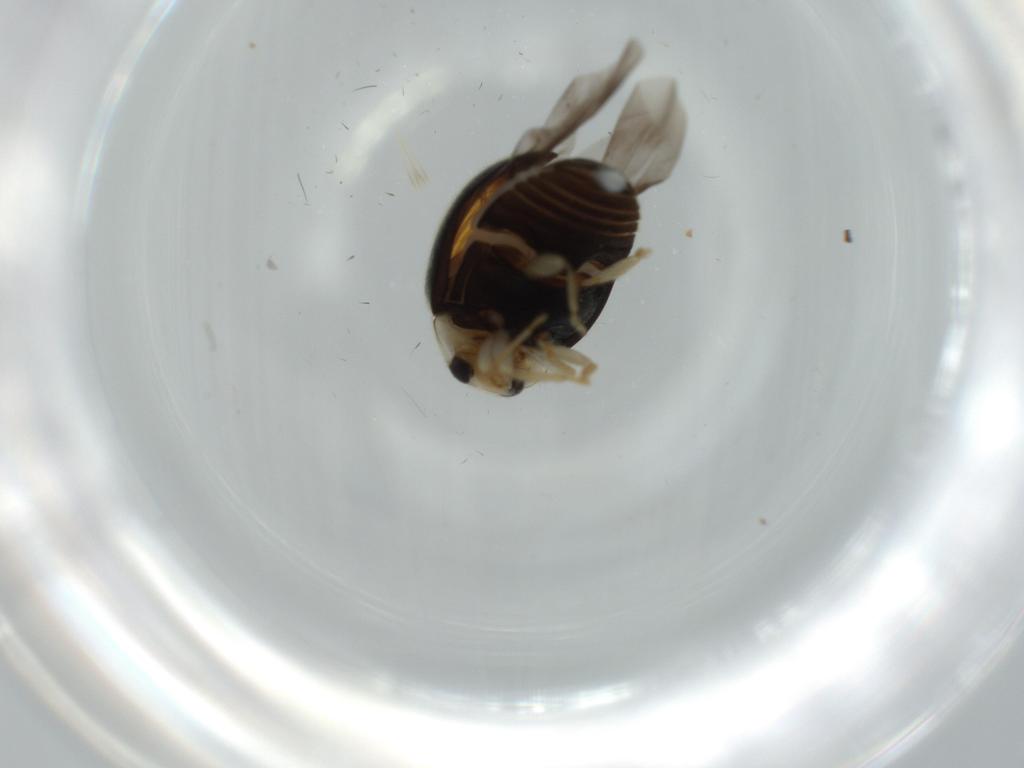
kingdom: Animalia
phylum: Arthropoda
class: Insecta
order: Coleoptera
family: Coccinellidae
